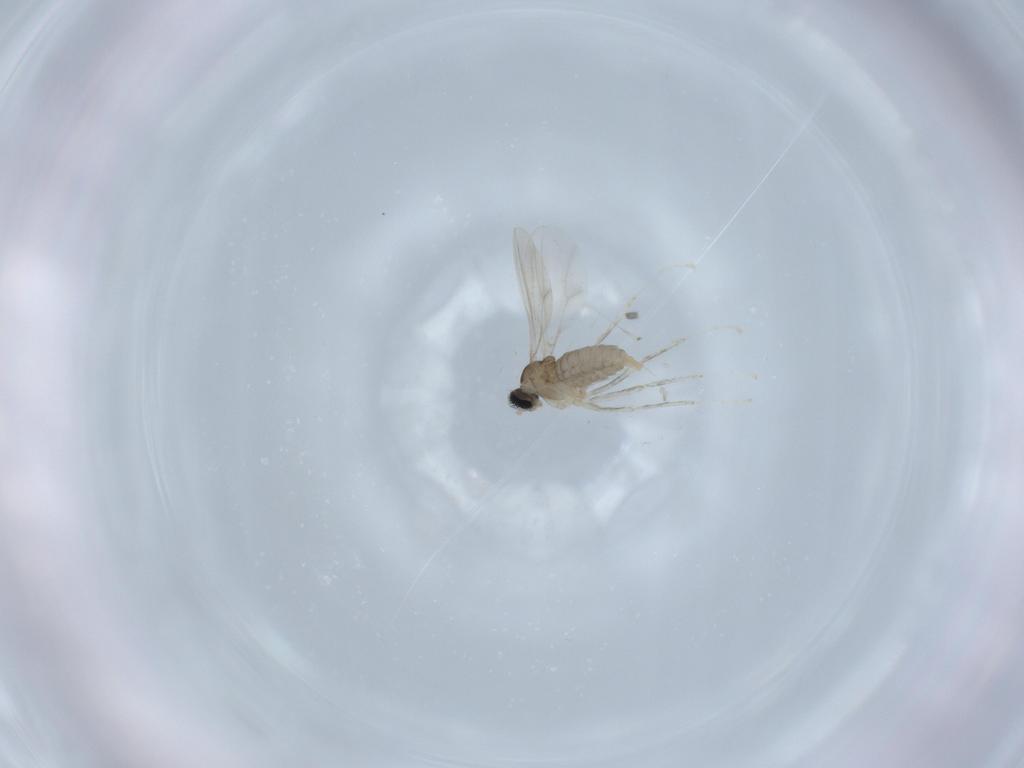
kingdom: Animalia
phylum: Arthropoda
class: Insecta
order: Diptera
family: Cecidomyiidae
